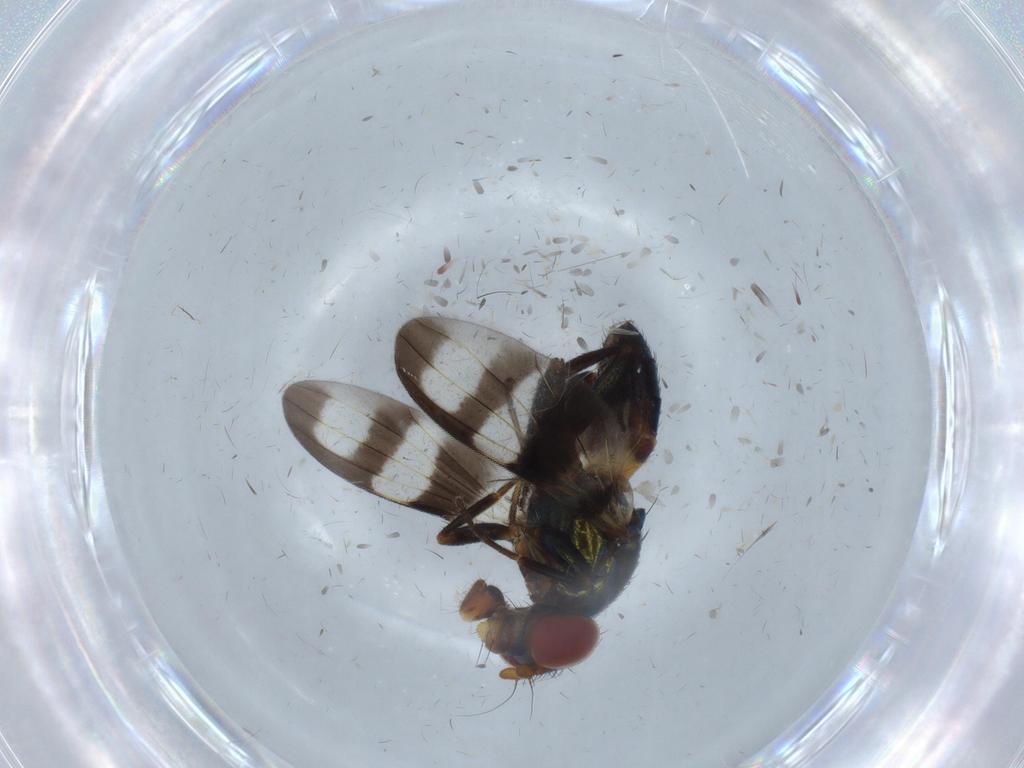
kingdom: Animalia
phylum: Arthropoda
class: Insecta
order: Diptera
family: Ulidiidae
